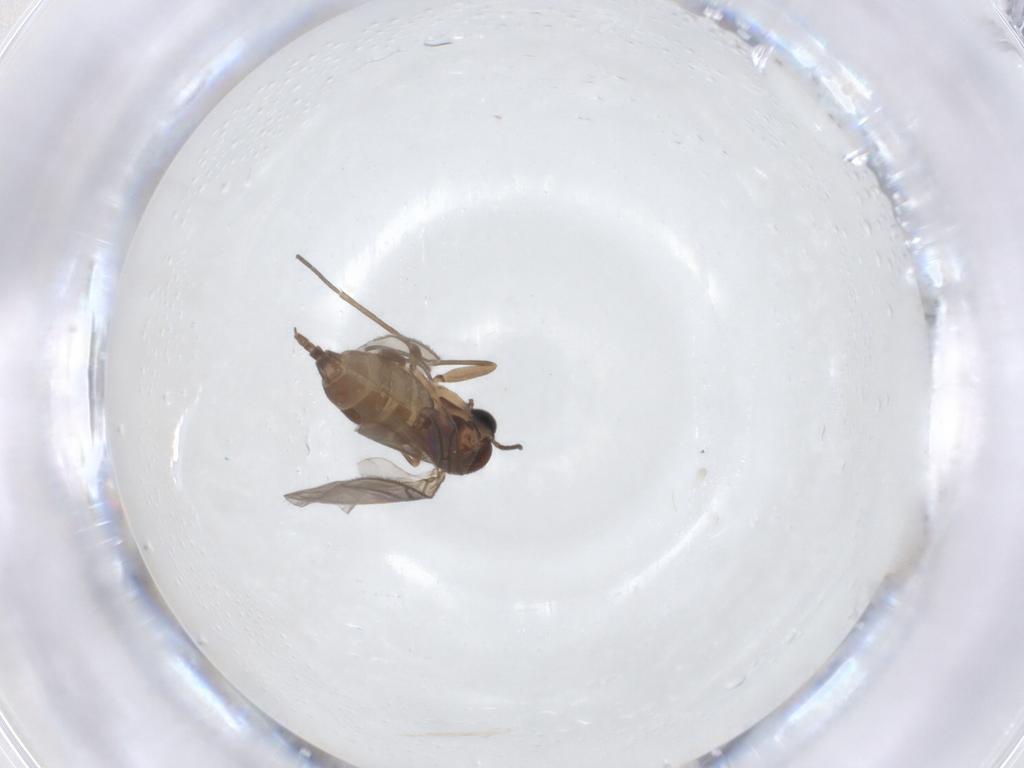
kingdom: Animalia
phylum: Arthropoda
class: Insecta
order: Diptera
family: Sciaridae
